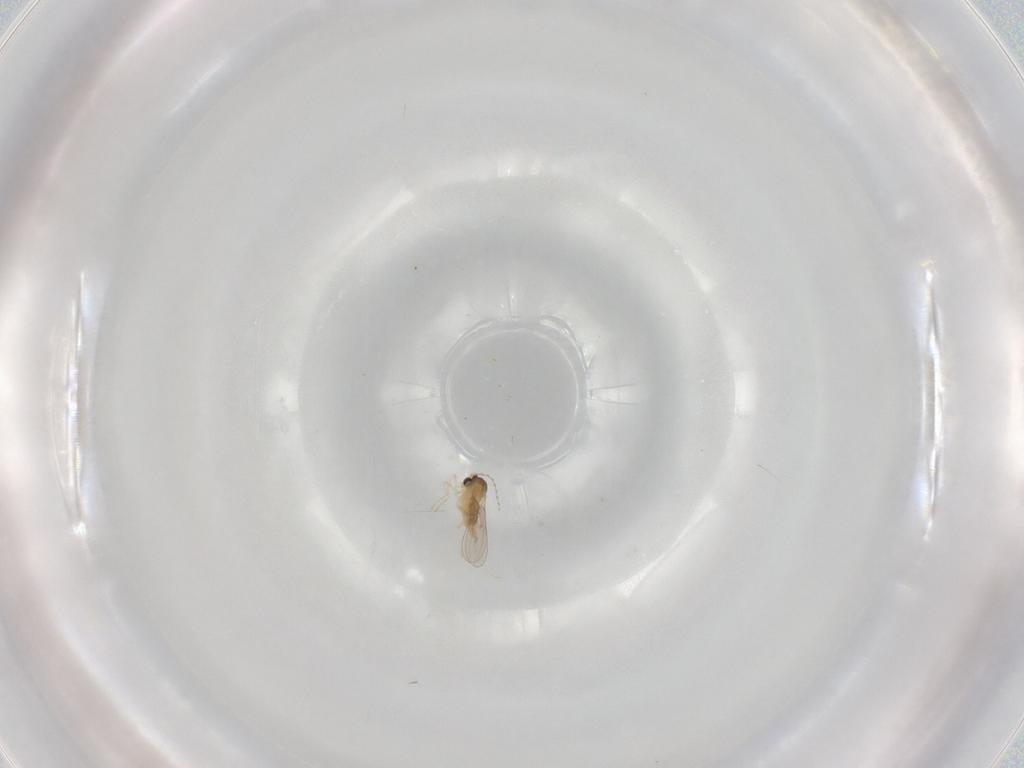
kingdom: Animalia
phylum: Arthropoda
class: Insecta
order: Diptera
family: Cecidomyiidae
